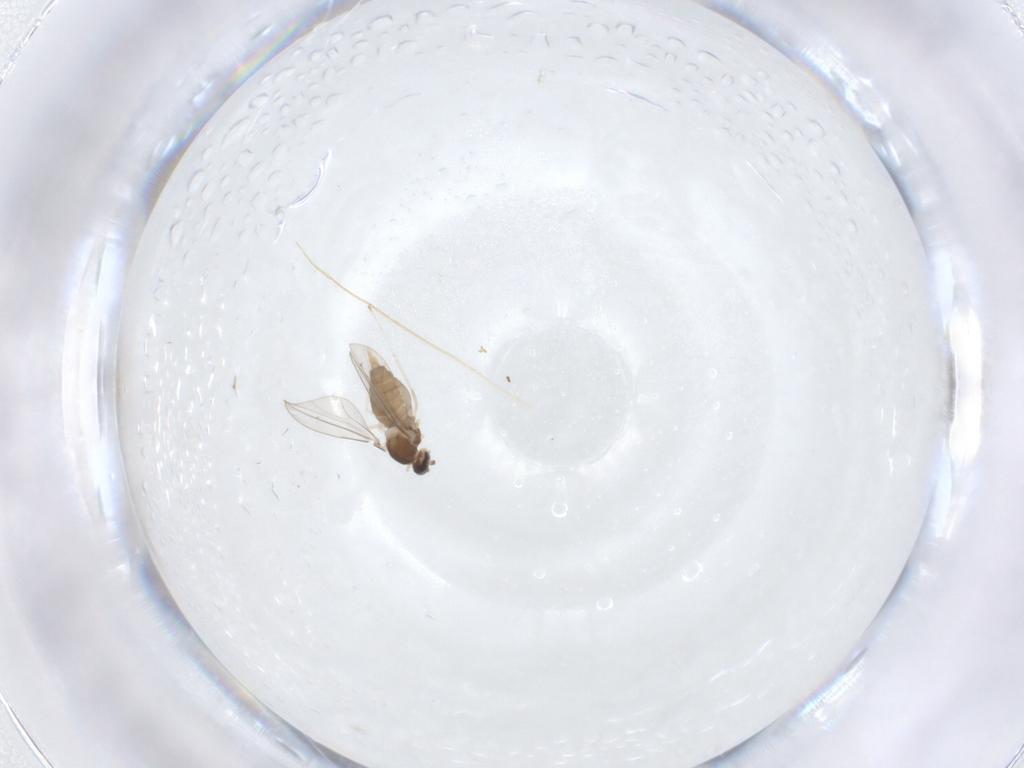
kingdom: Animalia
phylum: Arthropoda
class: Insecta
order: Diptera
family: Cecidomyiidae
